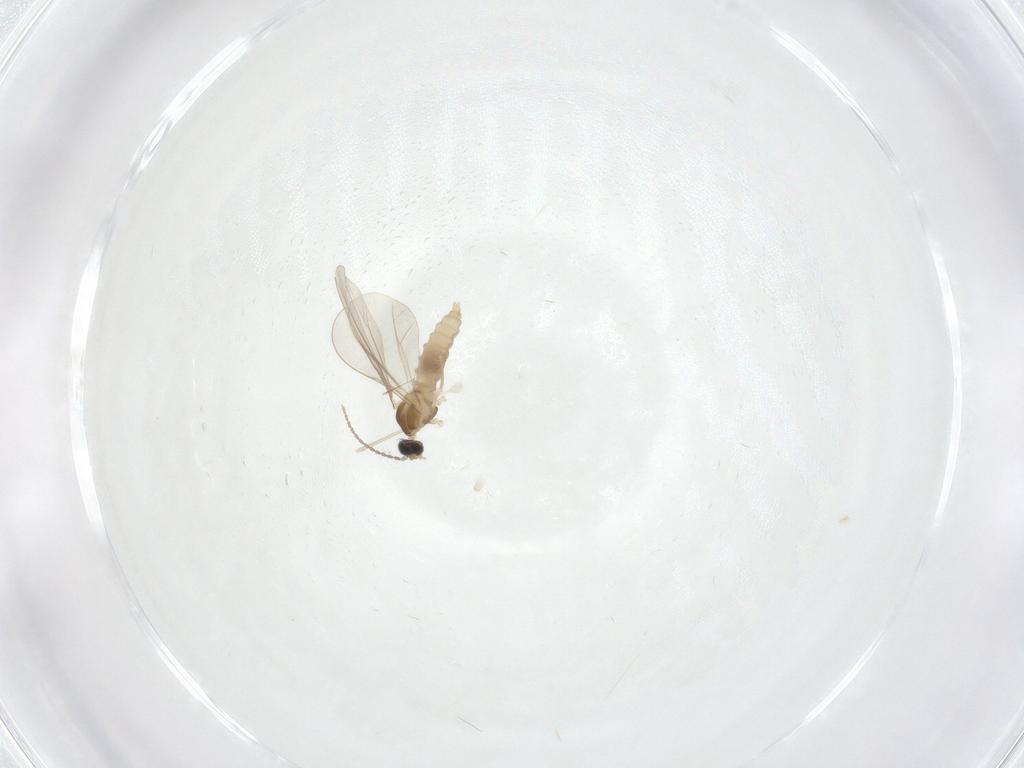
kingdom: Animalia
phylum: Arthropoda
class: Insecta
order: Diptera
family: Cecidomyiidae
